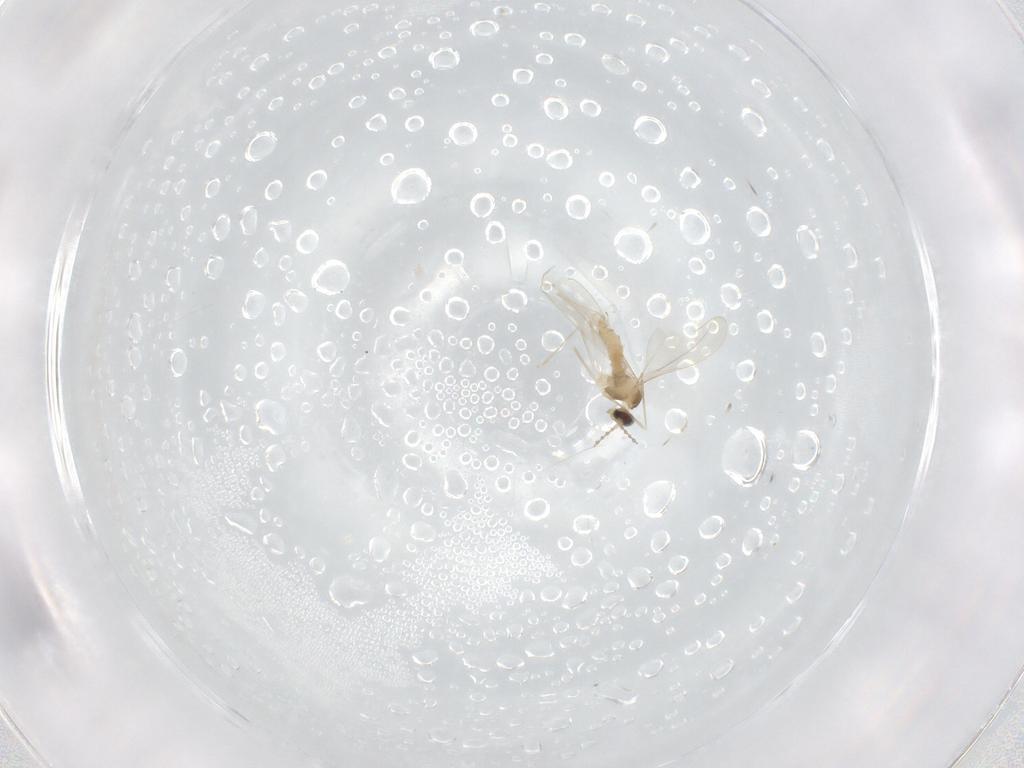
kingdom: Animalia
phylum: Arthropoda
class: Insecta
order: Diptera
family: Cecidomyiidae
